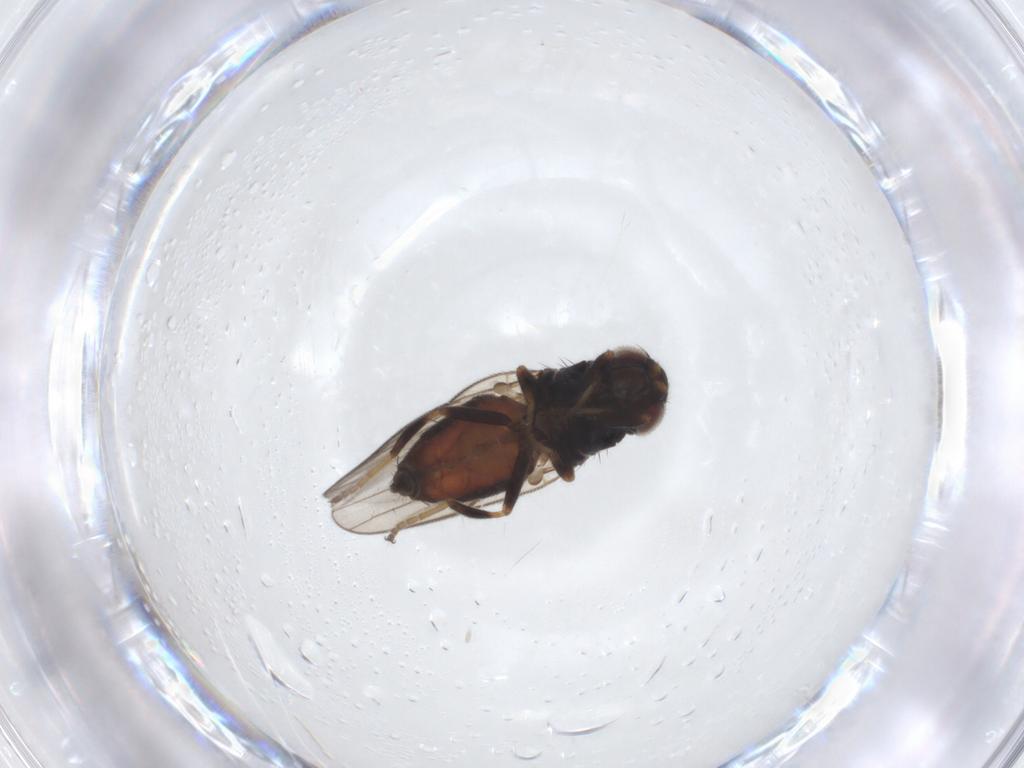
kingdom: Animalia
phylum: Arthropoda
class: Insecta
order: Diptera
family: Chloropidae
